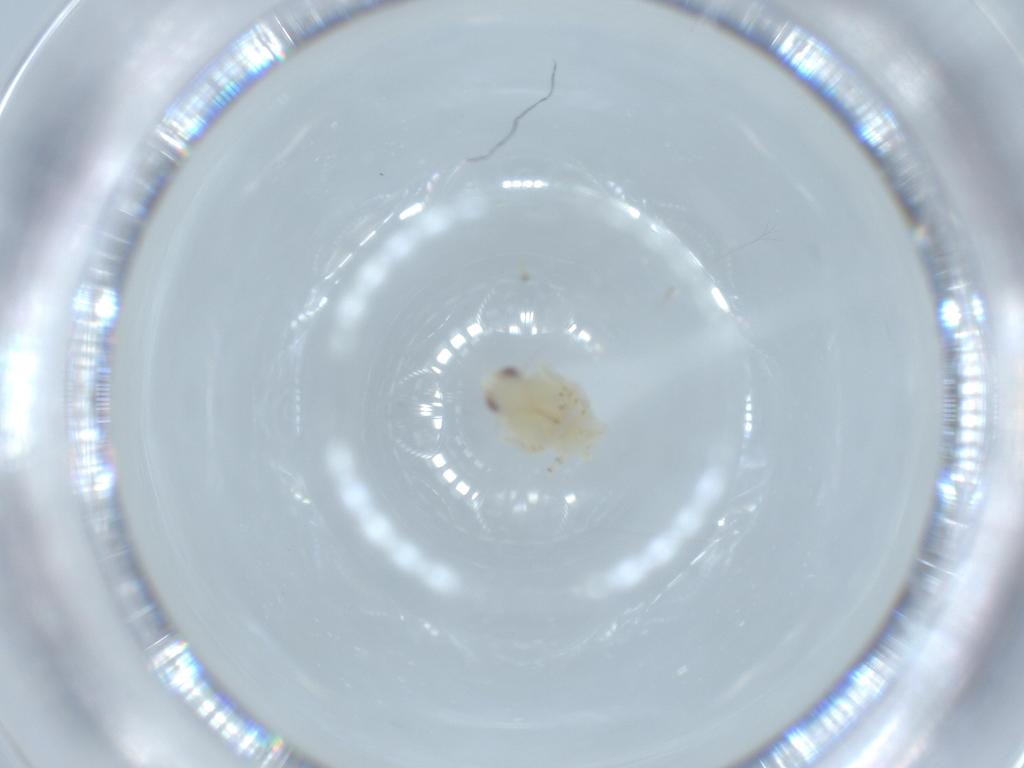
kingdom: Animalia
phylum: Arthropoda
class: Insecta
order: Hemiptera
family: Nogodinidae
